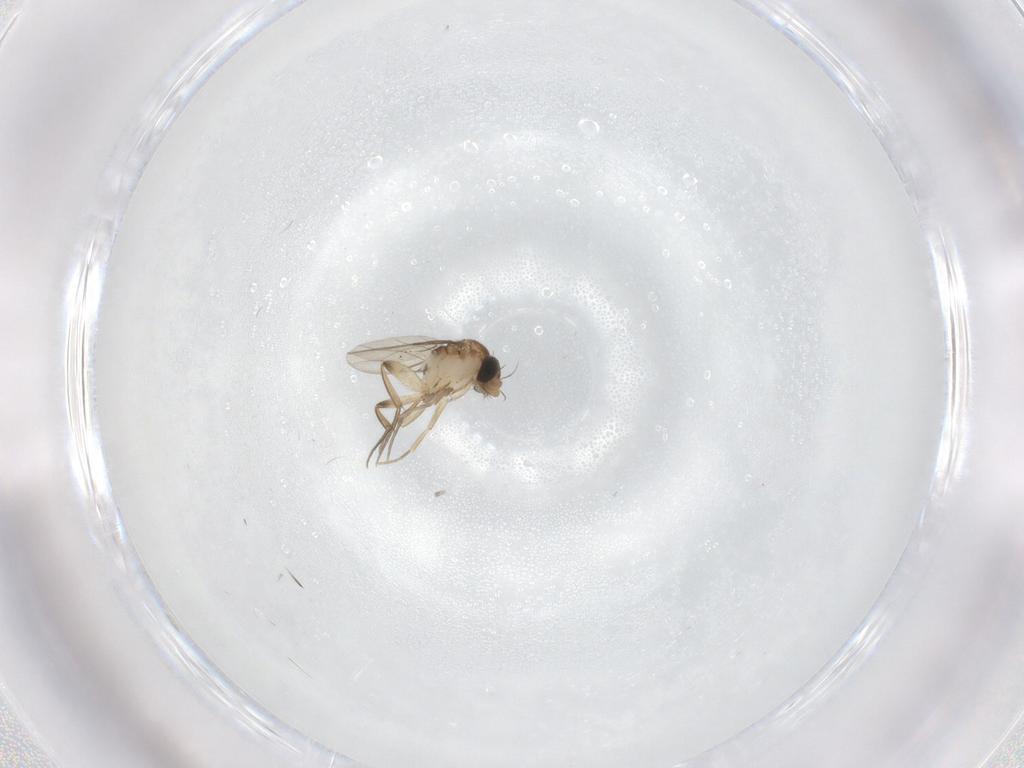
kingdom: Animalia
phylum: Arthropoda
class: Insecta
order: Diptera
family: Phoridae
